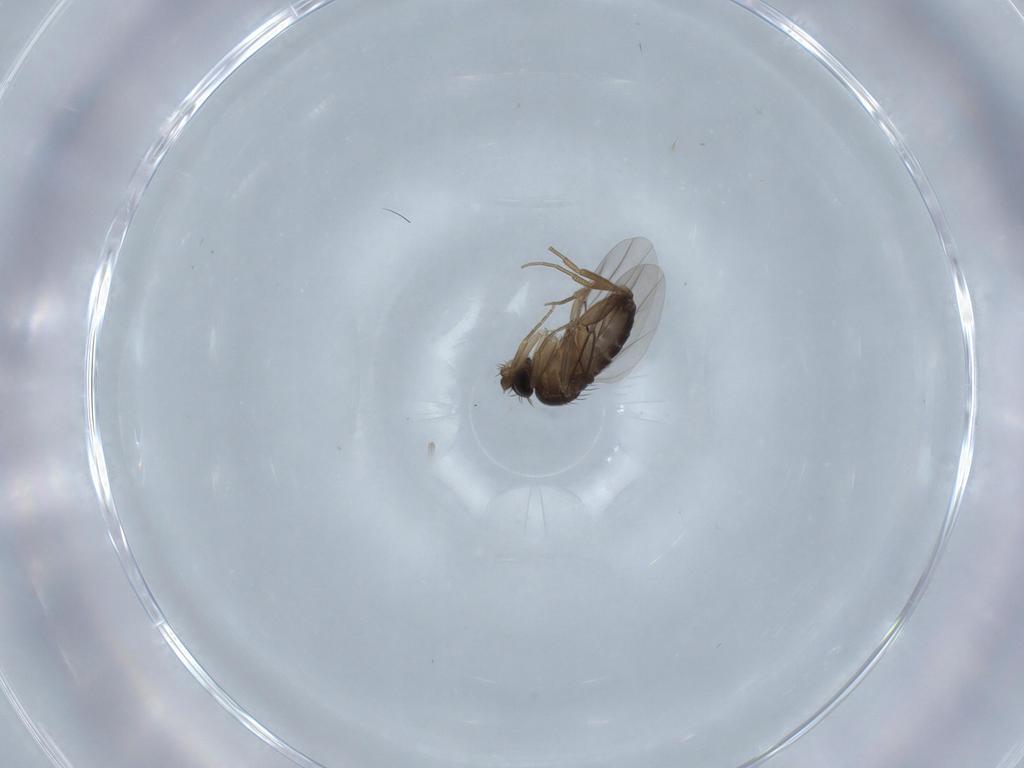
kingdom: Animalia
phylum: Arthropoda
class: Insecta
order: Diptera
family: Phoridae
